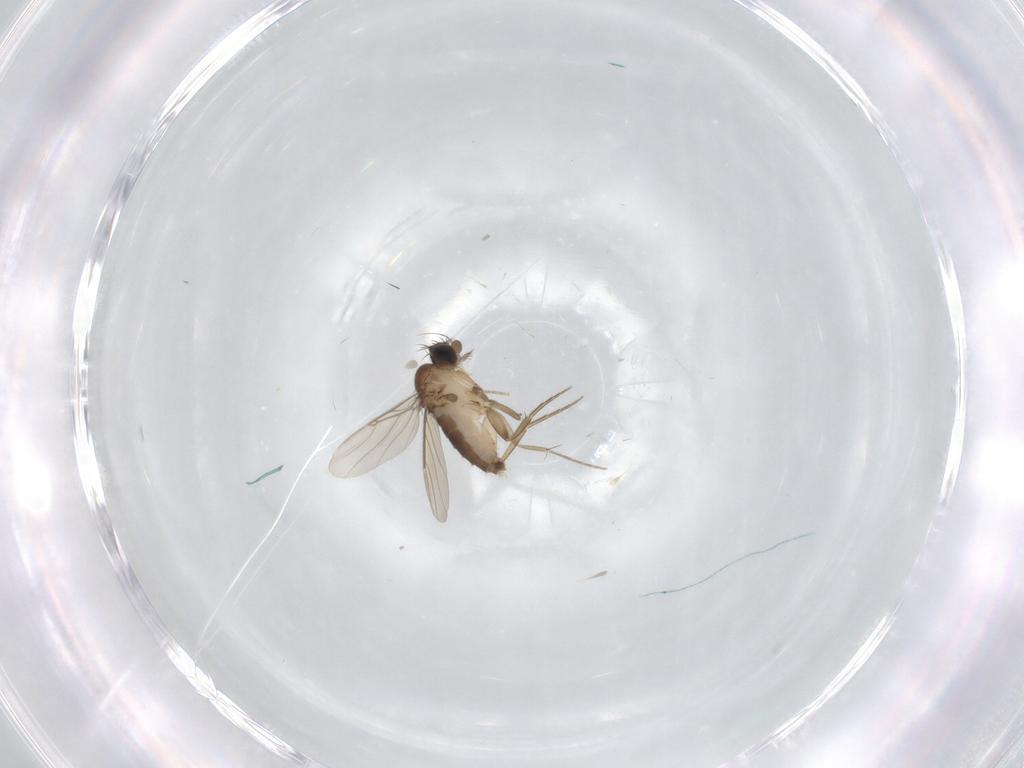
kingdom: Animalia
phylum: Arthropoda
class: Insecta
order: Diptera
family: Phoridae
